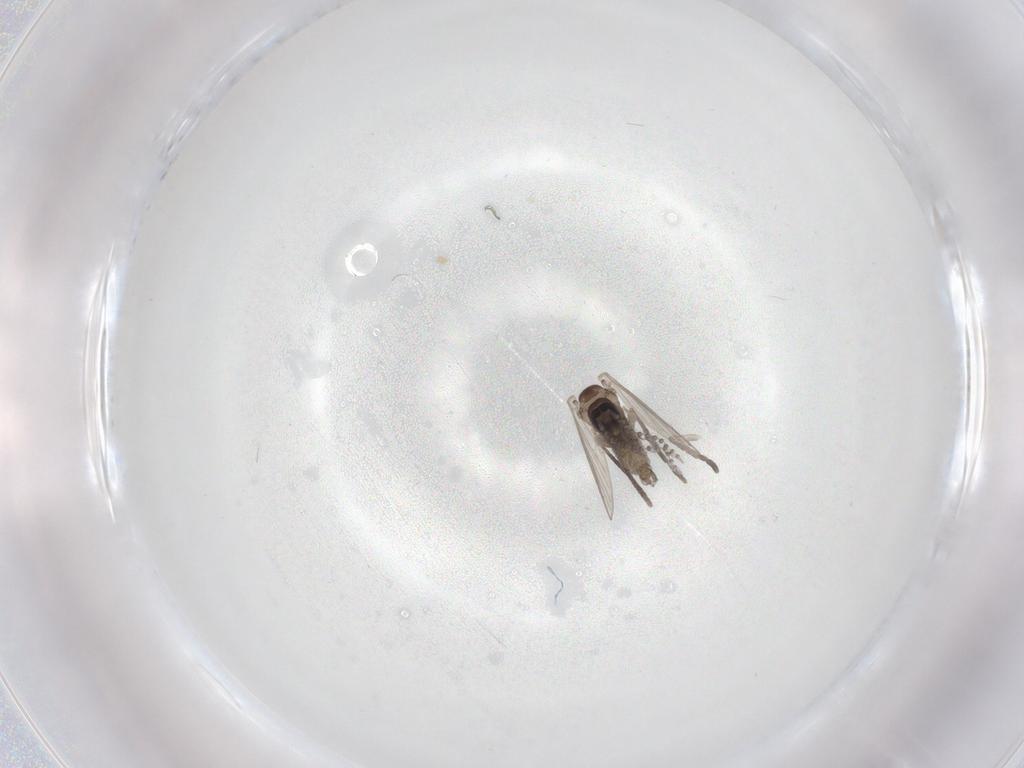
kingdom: Animalia
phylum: Arthropoda
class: Insecta
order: Diptera
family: Psychodidae
